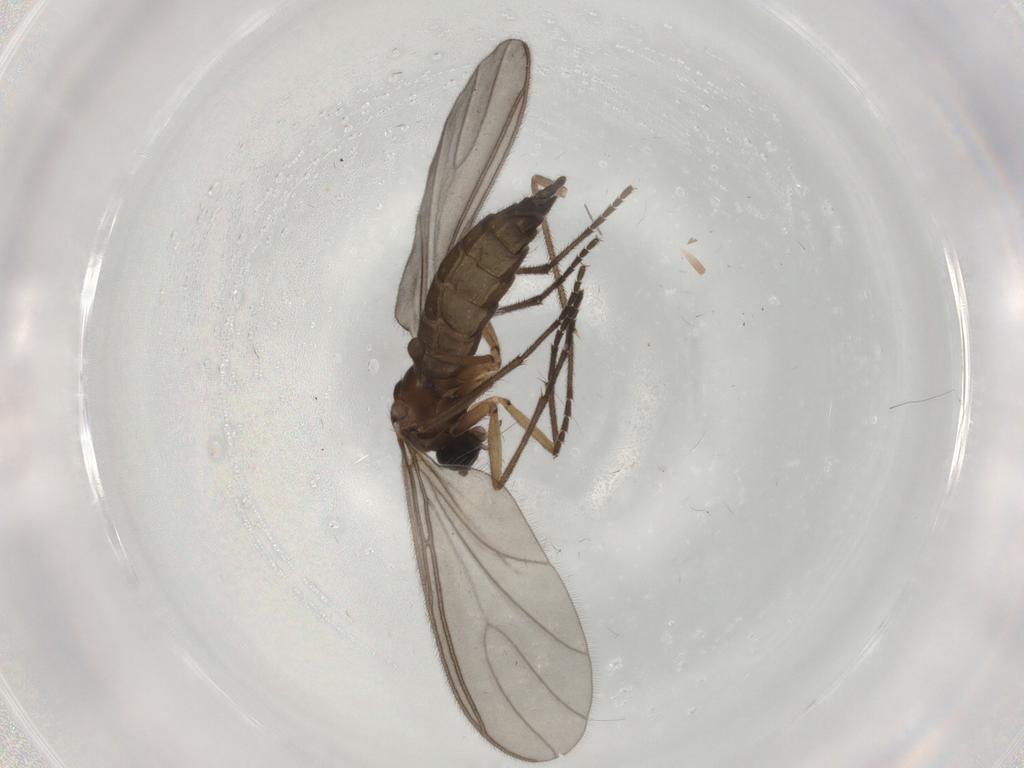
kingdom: Animalia
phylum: Arthropoda
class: Insecta
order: Diptera
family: Sciaridae
